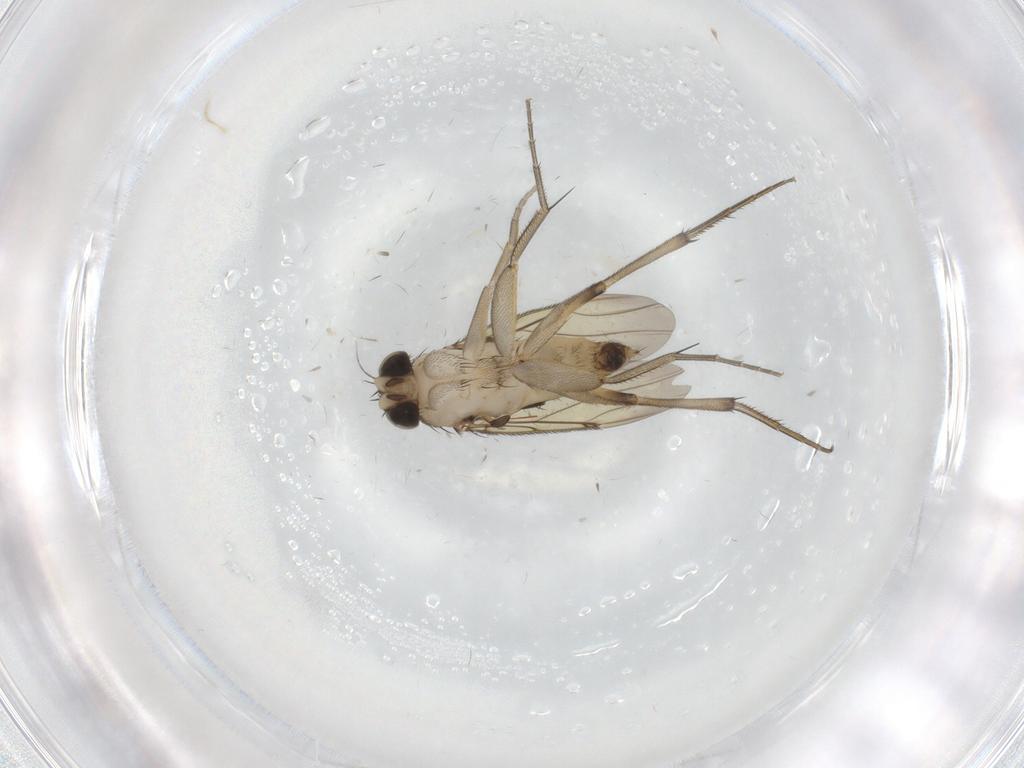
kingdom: Animalia
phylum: Arthropoda
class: Insecta
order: Diptera
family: Phoridae
